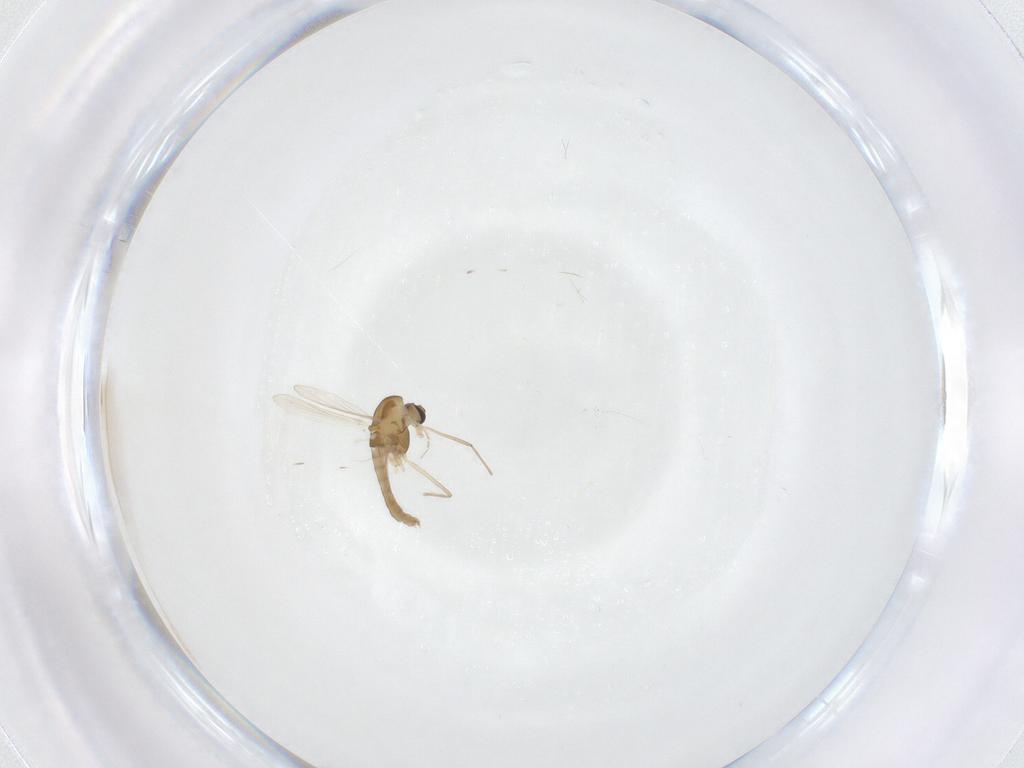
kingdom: Animalia
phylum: Arthropoda
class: Insecta
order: Diptera
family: Chironomidae
